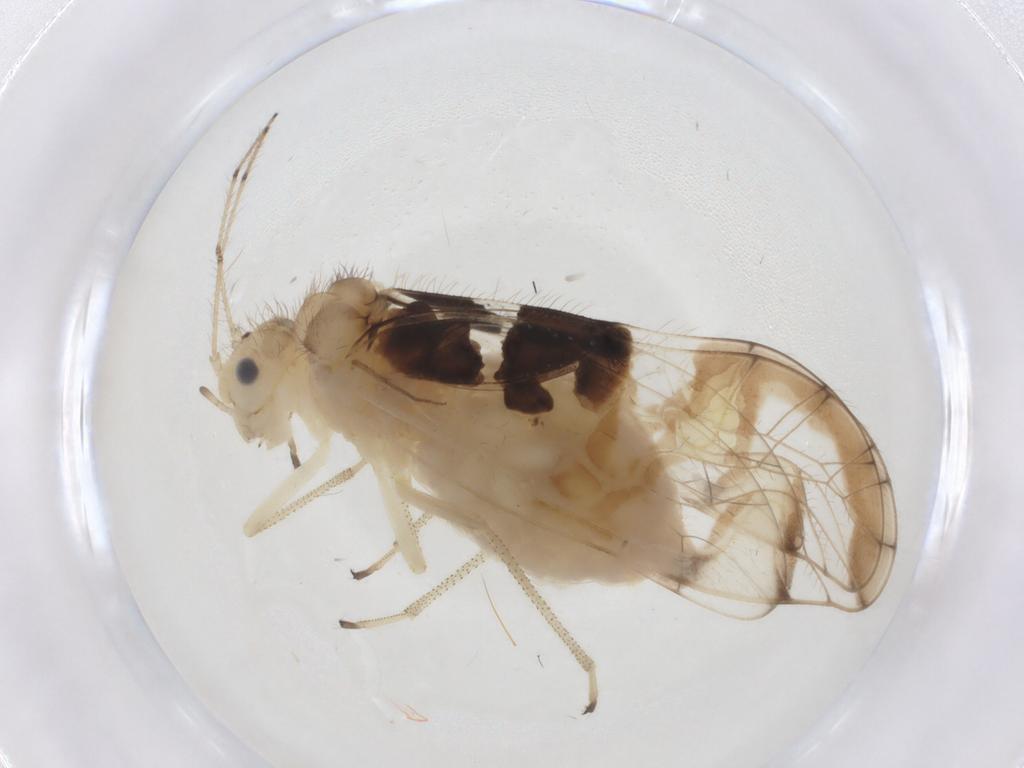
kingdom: Animalia
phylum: Arthropoda
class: Insecta
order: Psocodea
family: Amphipsocidae
